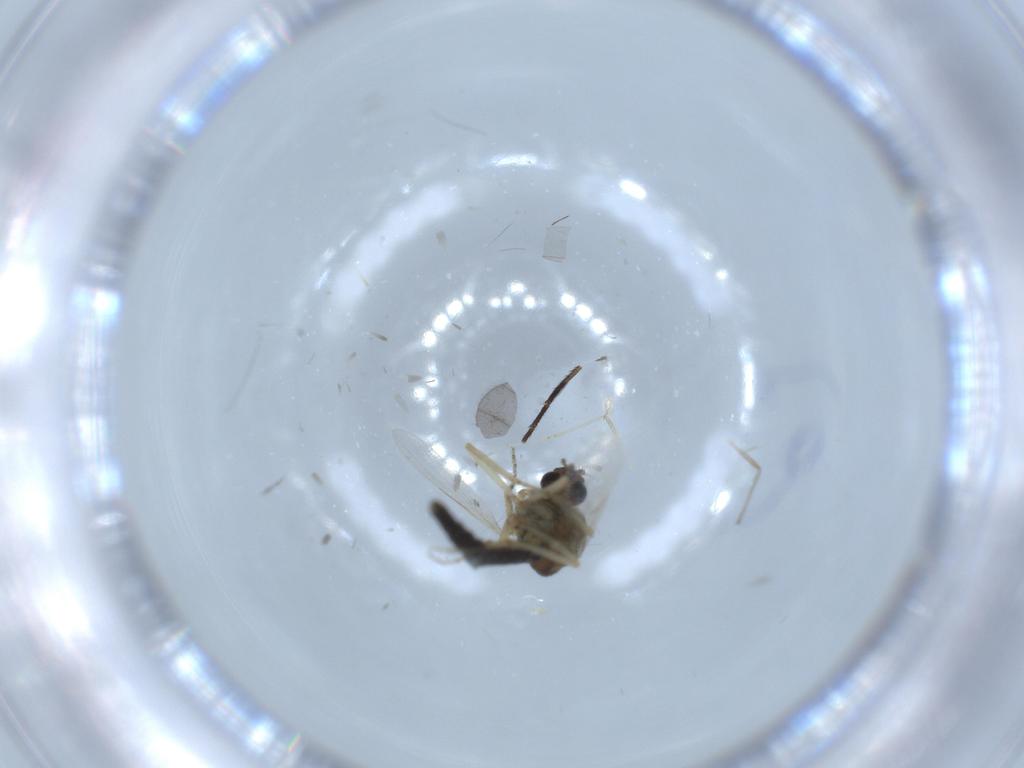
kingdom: Animalia
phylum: Arthropoda
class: Insecta
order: Diptera
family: Ceratopogonidae
